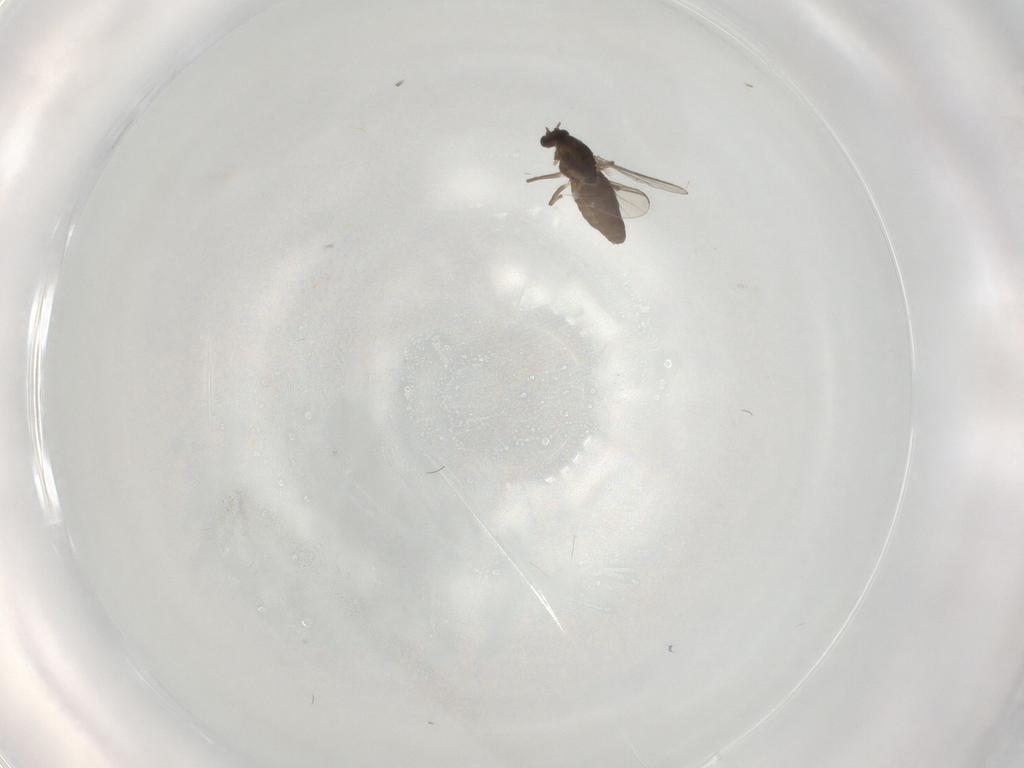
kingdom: Animalia
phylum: Arthropoda
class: Insecta
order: Diptera
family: Chironomidae
